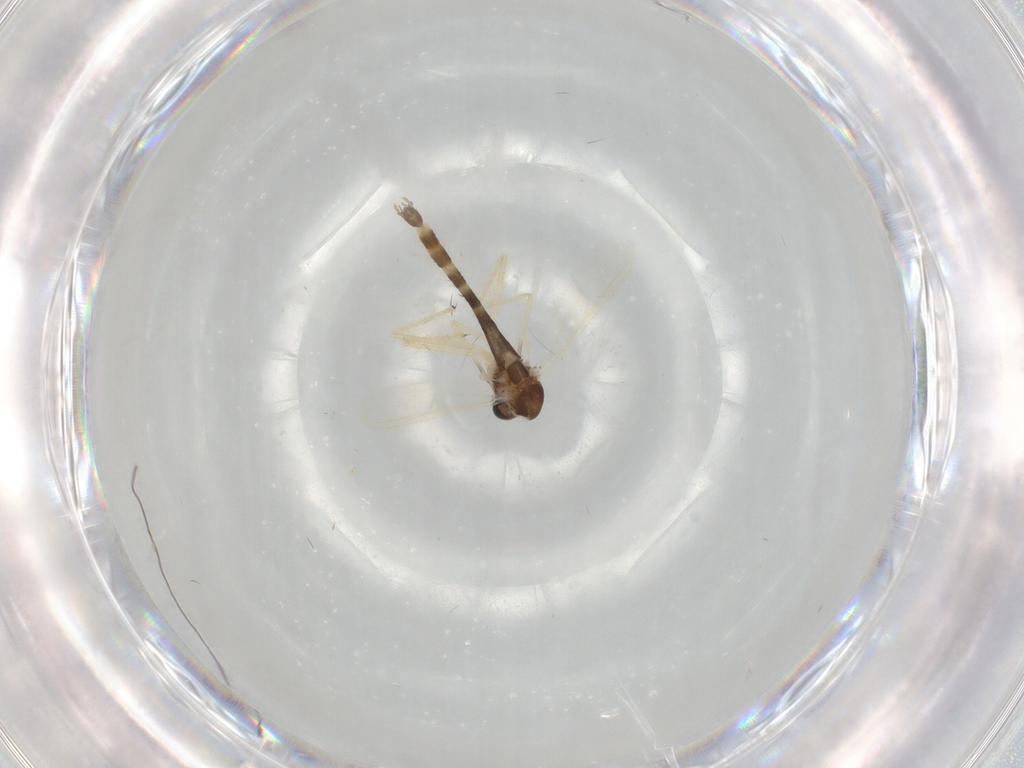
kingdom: Animalia
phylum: Arthropoda
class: Insecta
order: Diptera
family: Chironomidae
